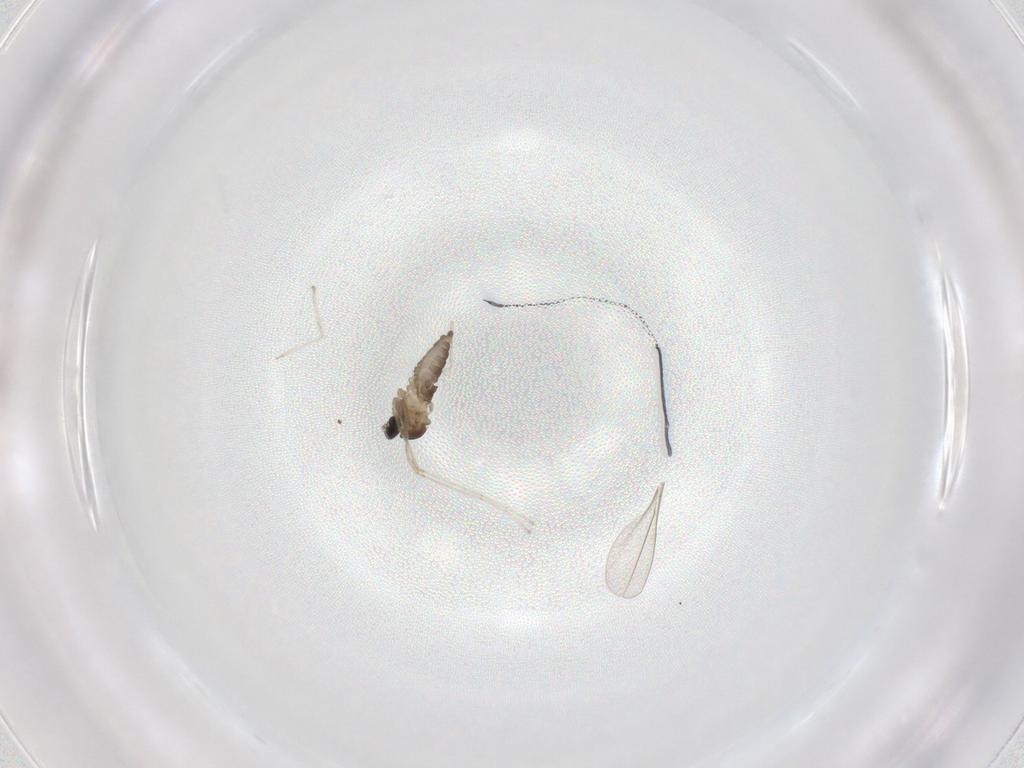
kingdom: Animalia
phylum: Arthropoda
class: Insecta
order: Diptera
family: Cecidomyiidae
